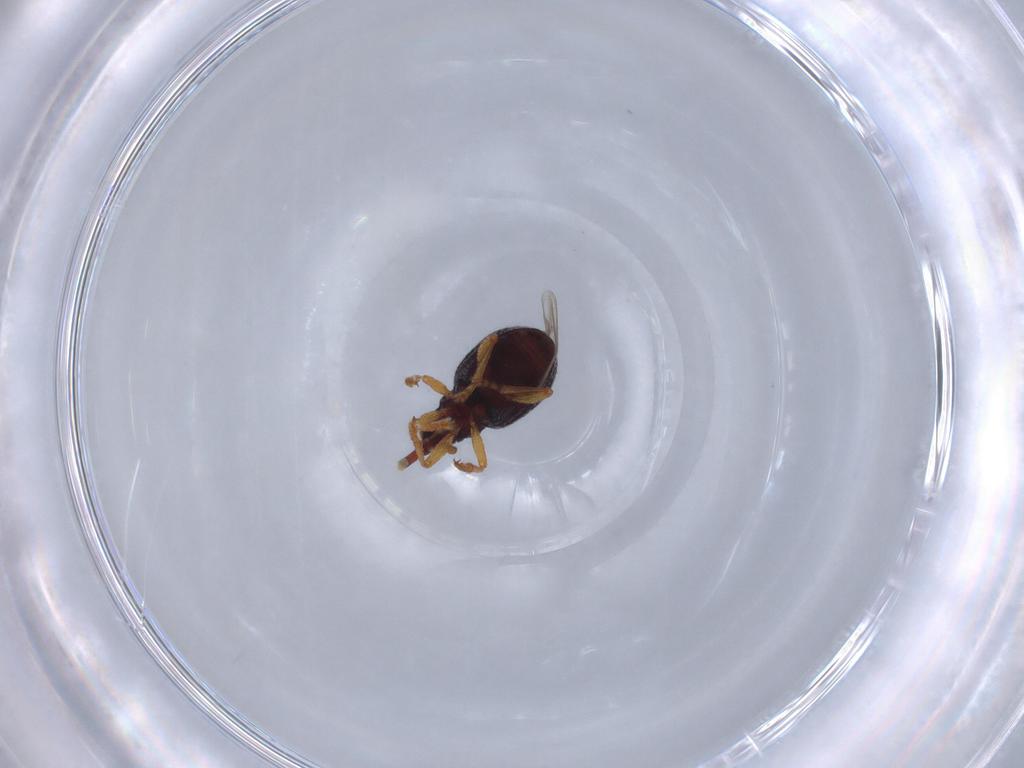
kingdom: Animalia
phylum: Arthropoda
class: Insecta
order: Coleoptera
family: Brentidae
